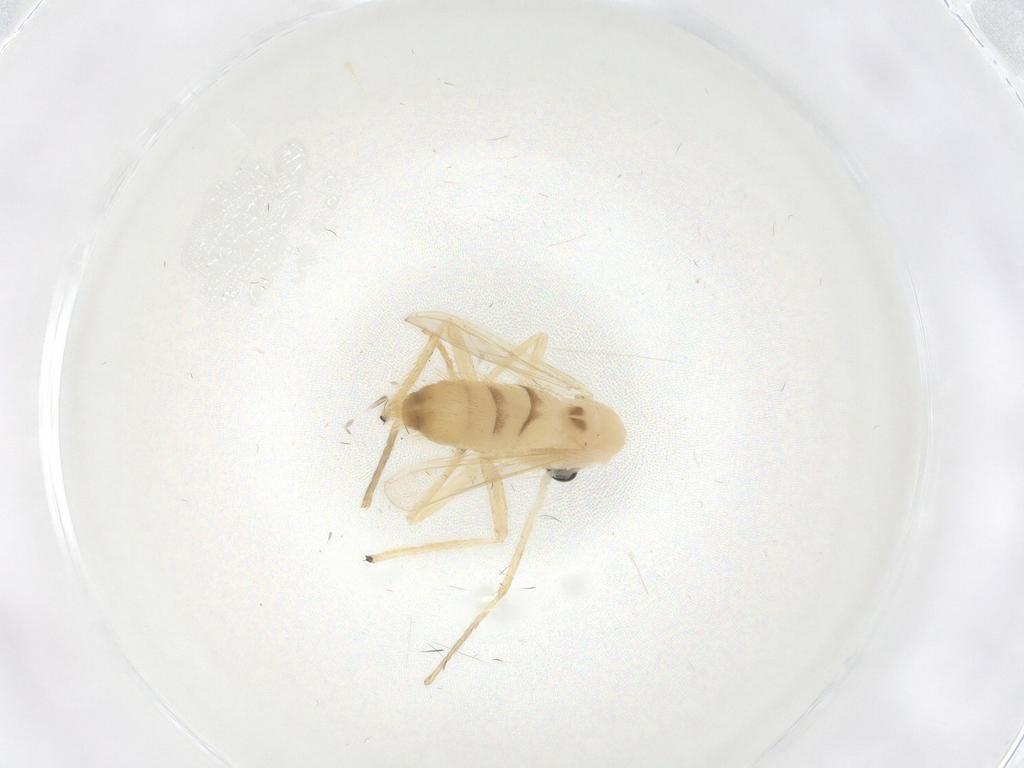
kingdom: Animalia
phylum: Arthropoda
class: Insecta
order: Diptera
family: Chironomidae
